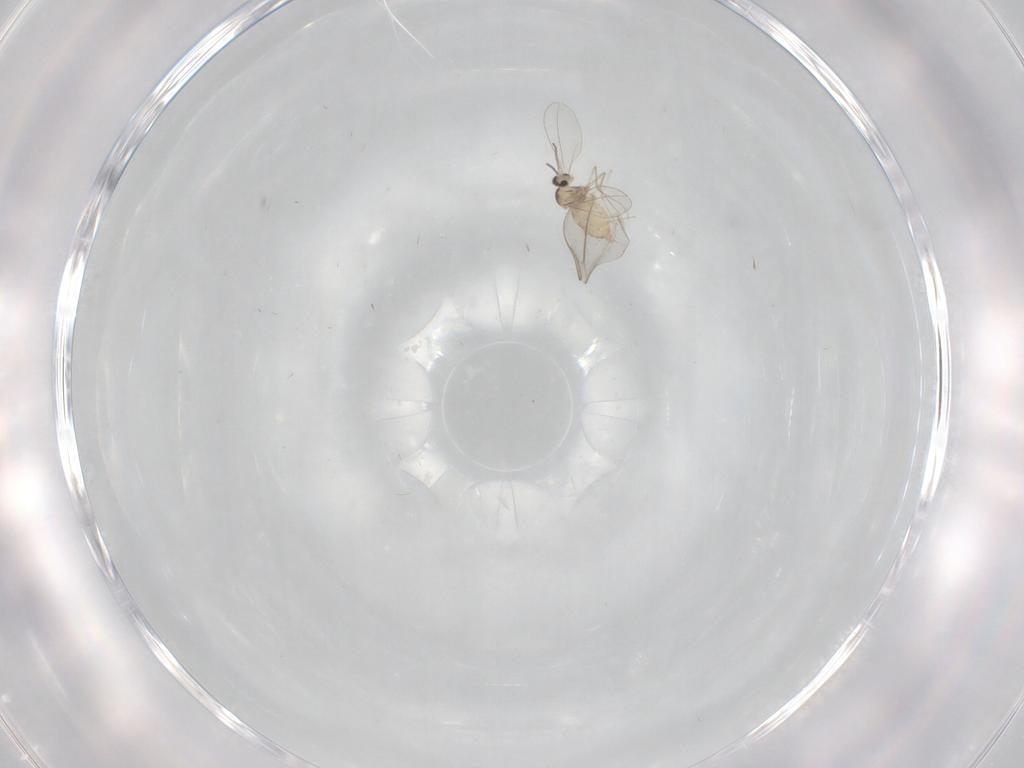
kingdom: Animalia
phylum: Arthropoda
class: Insecta
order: Diptera
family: Cecidomyiidae
